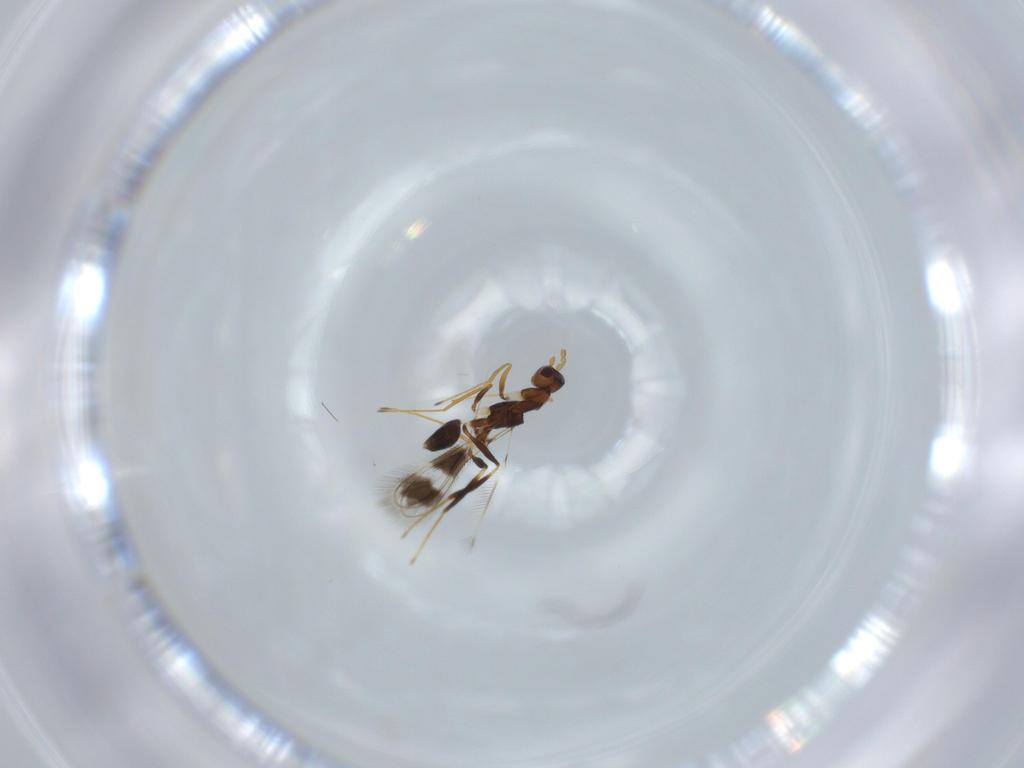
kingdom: Animalia
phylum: Arthropoda
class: Insecta
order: Hymenoptera
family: Mymaridae
